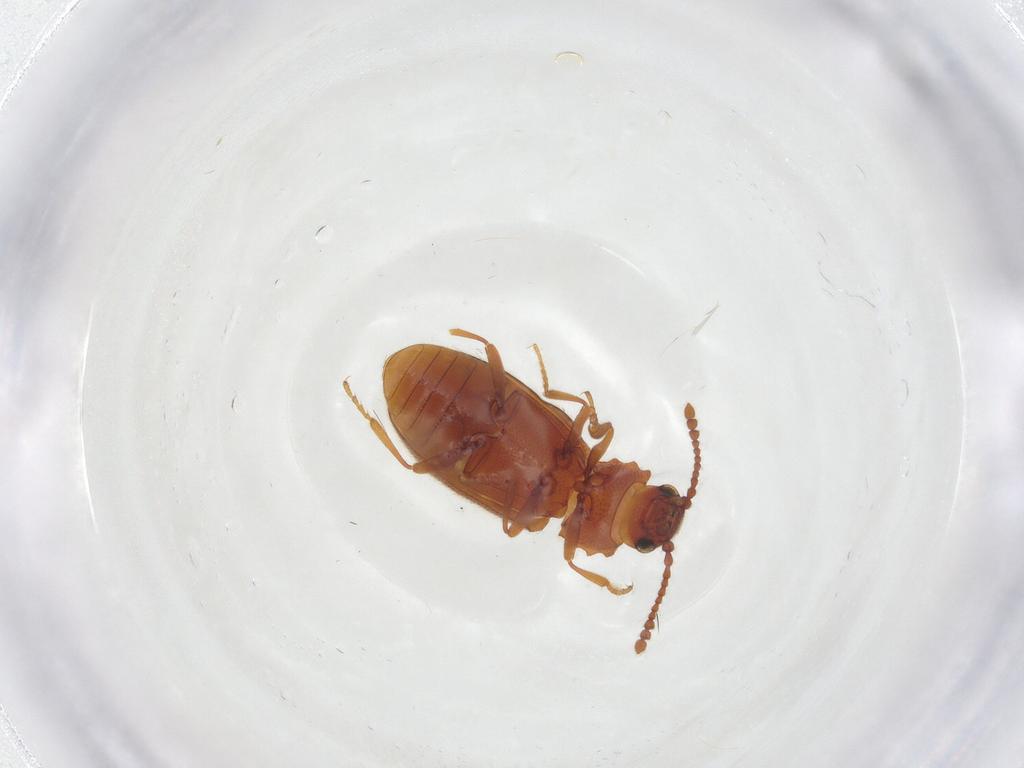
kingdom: Animalia
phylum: Arthropoda
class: Insecta
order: Coleoptera
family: Cryptophagidae
